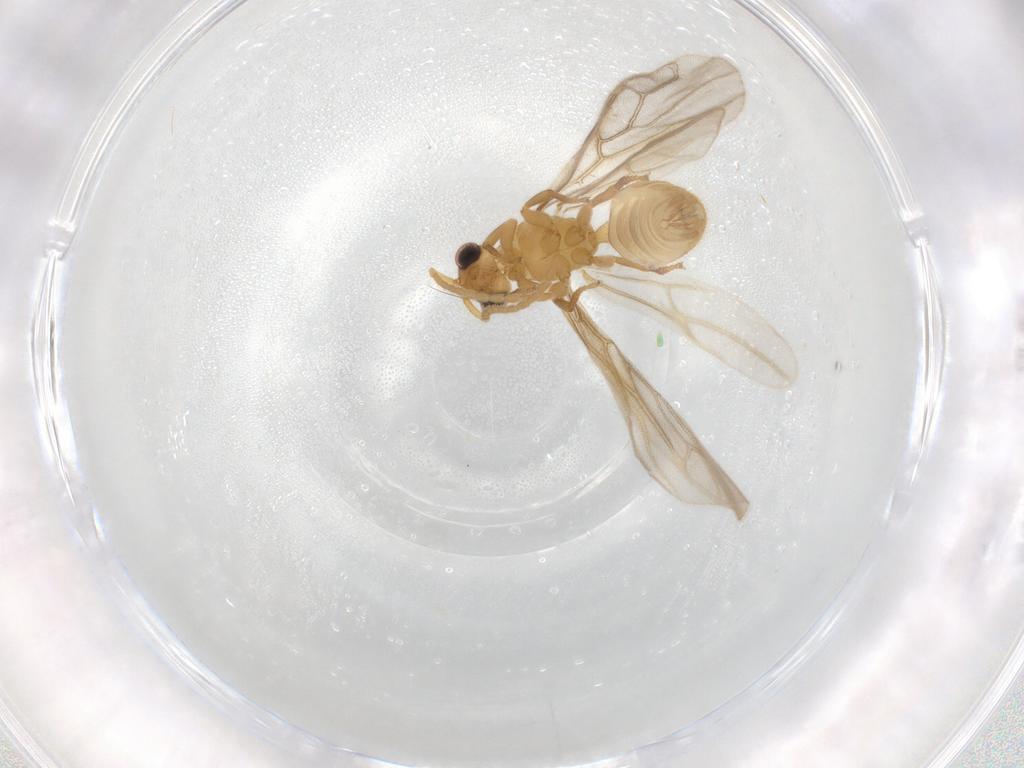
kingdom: Animalia
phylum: Arthropoda
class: Insecta
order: Hymenoptera
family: Formicidae
